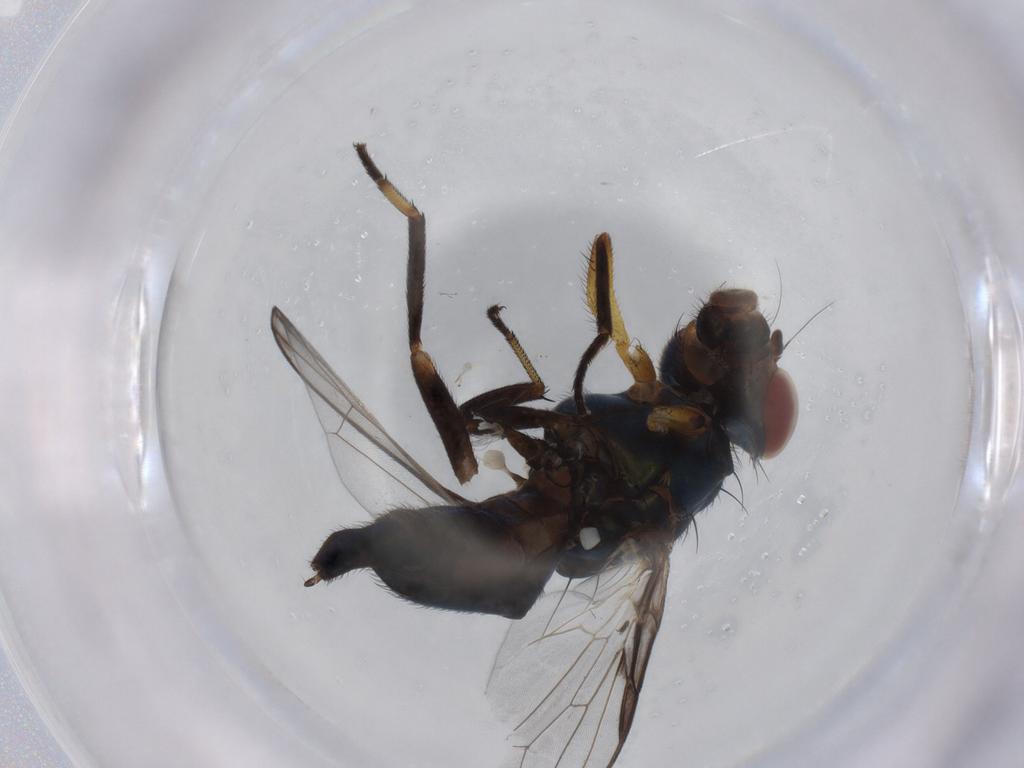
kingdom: Animalia
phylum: Arthropoda
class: Insecta
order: Diptera
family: Ulidiidae
